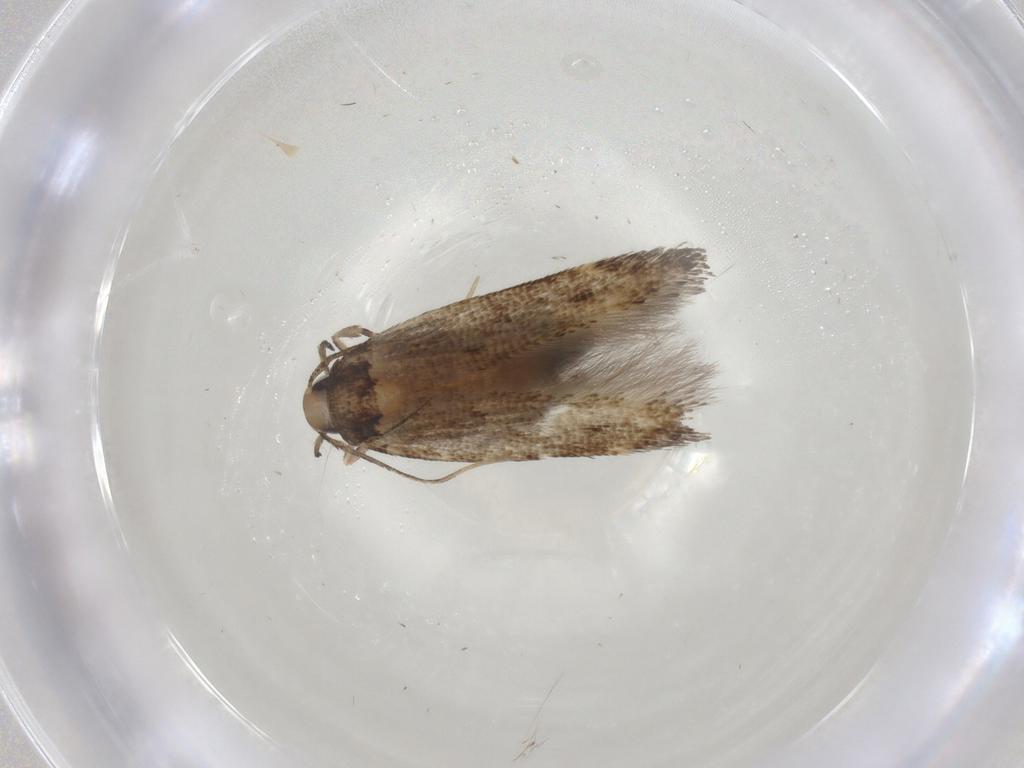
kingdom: Animalia
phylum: Arthropoda
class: Insecta
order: Lepidoptera
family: Cosmopterigidae
